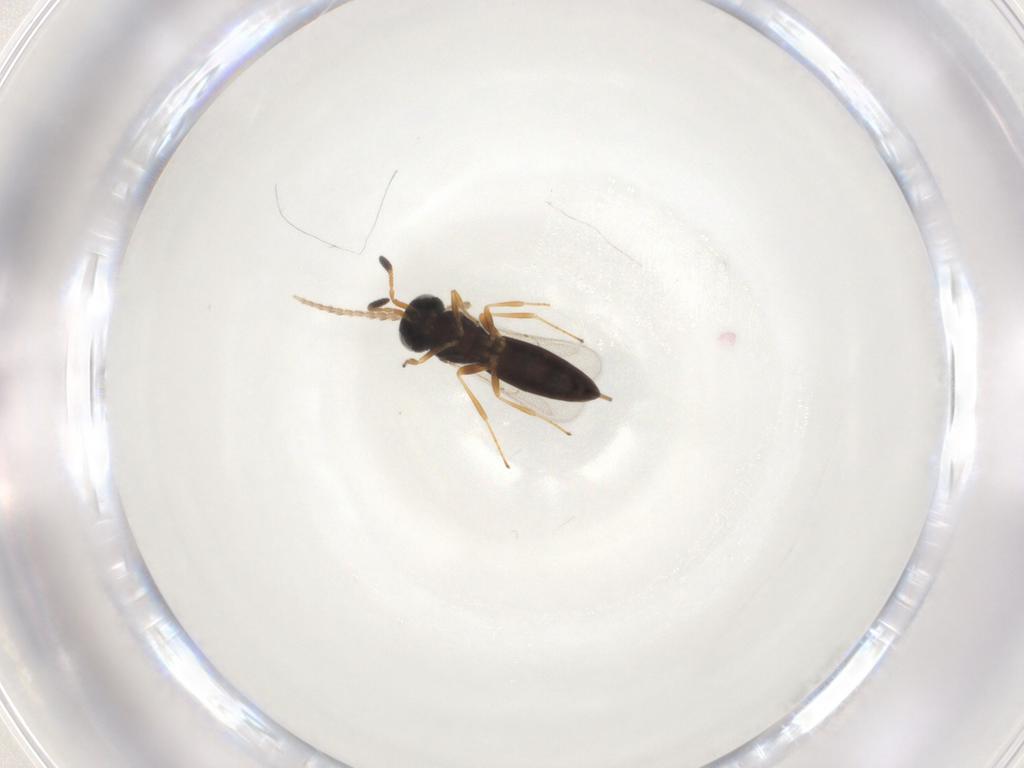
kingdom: Animalia
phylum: Arthropoda
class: Insecta
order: Hymenoptera
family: Scelionidae
